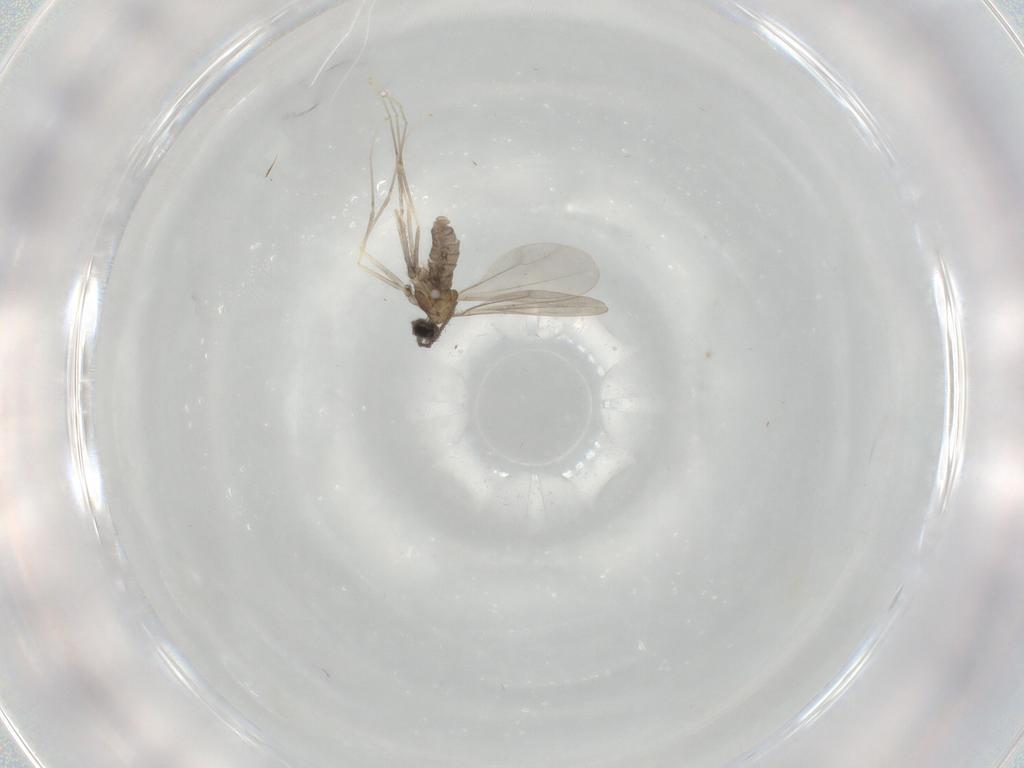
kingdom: Animalia
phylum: Arthropoda
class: Insecta
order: Diptera
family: Cecidomyiidae
